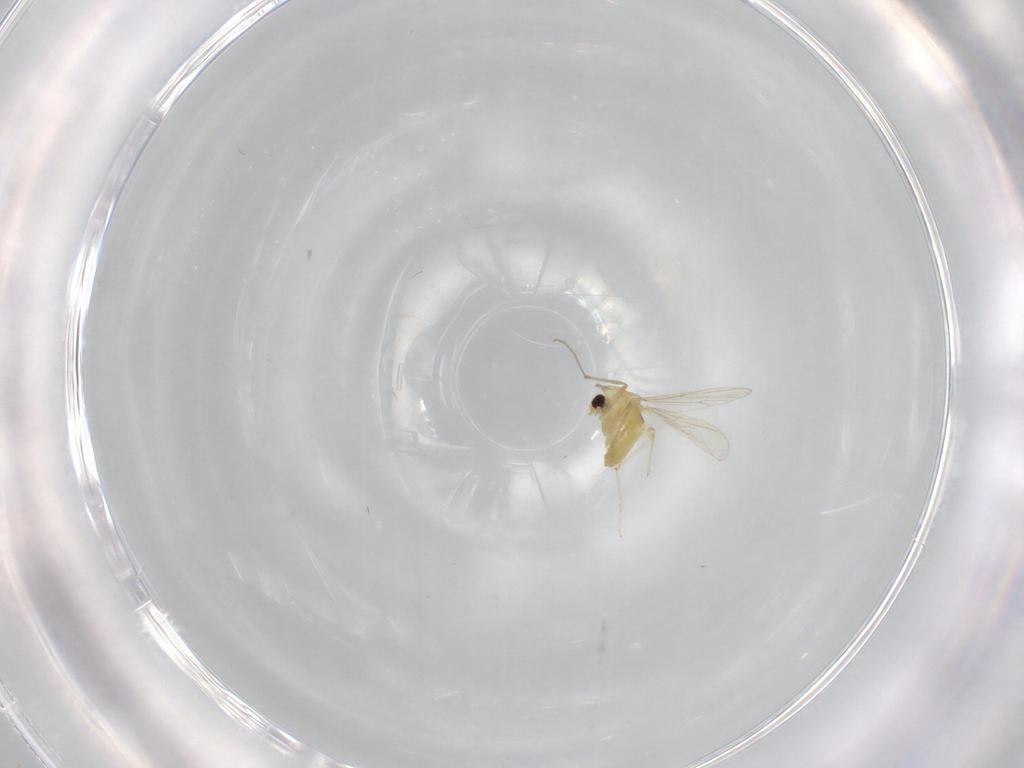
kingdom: Animalia
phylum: Arthropoda
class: Insecta
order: Diptera
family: Chironomidae
